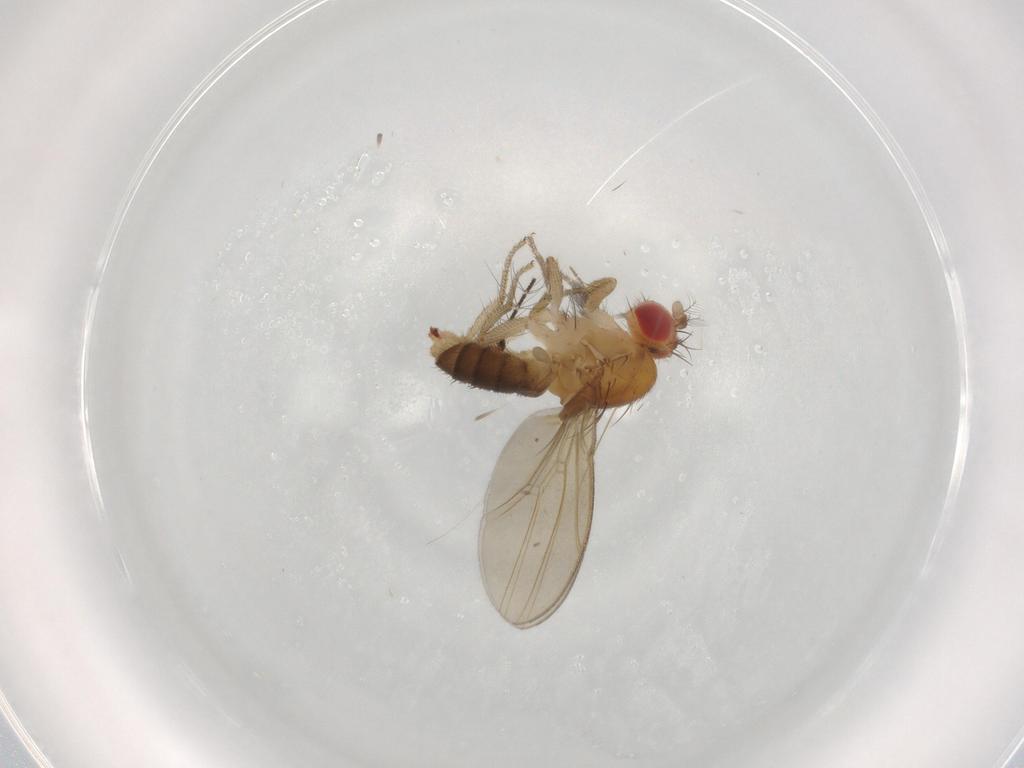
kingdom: Animalia
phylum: Arthropoda
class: Insecta
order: Diptera
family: Drosophilidae
